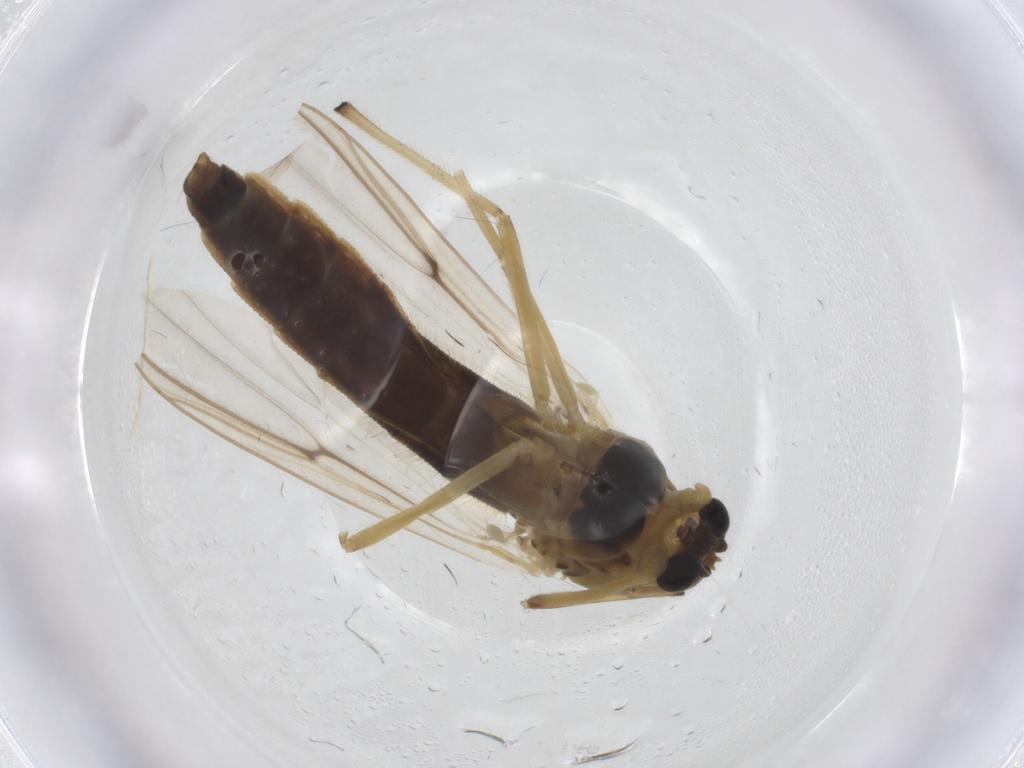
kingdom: Animalia
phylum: Arthropoda
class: Insecta
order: Diptera
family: Chironomidae
